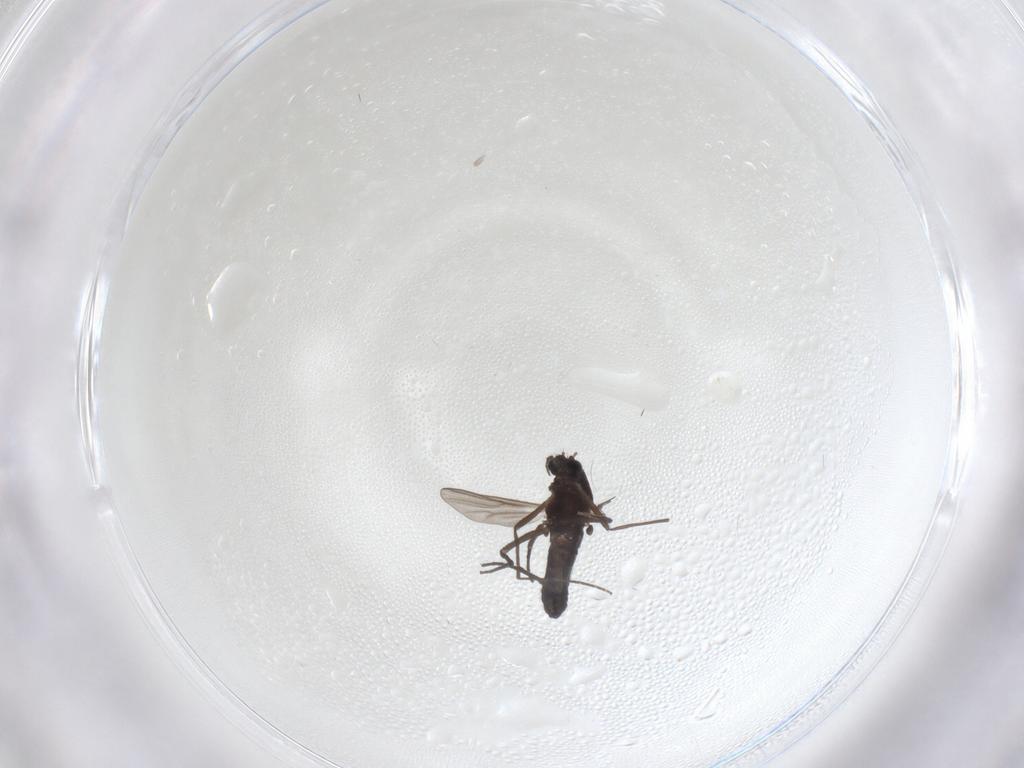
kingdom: Animalia
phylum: Arthropoda
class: Insecta
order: Diptera
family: Chironomidae
